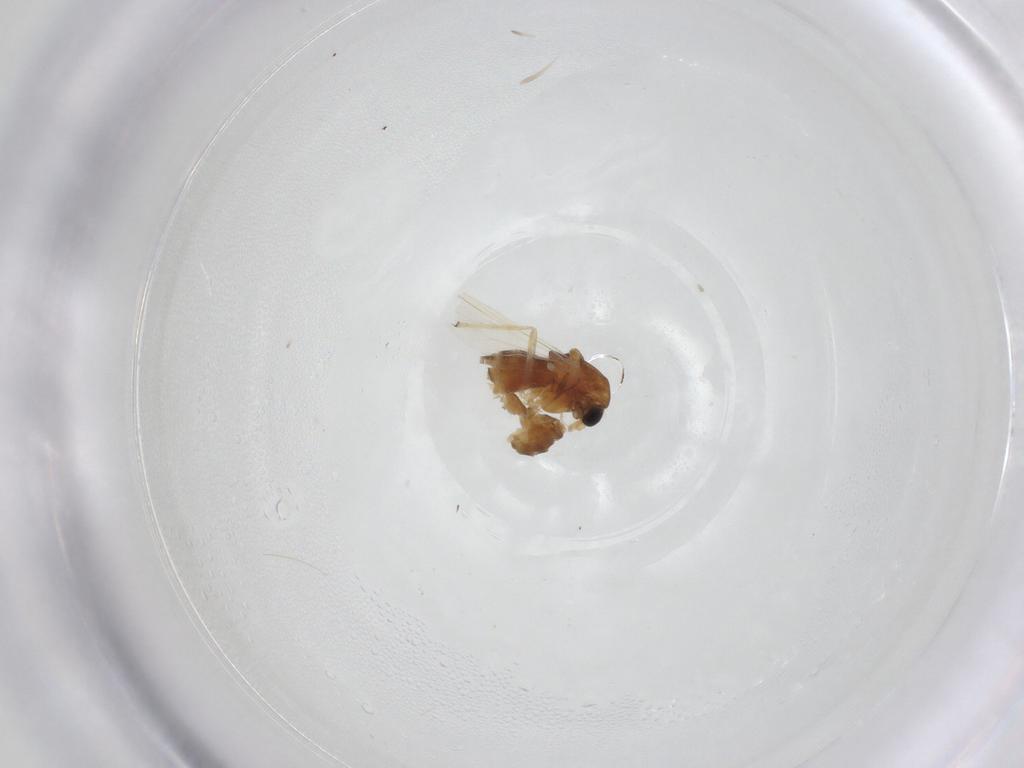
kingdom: Animalia
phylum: Arthropoda
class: Insecta
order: Diptera
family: Chironomidae
